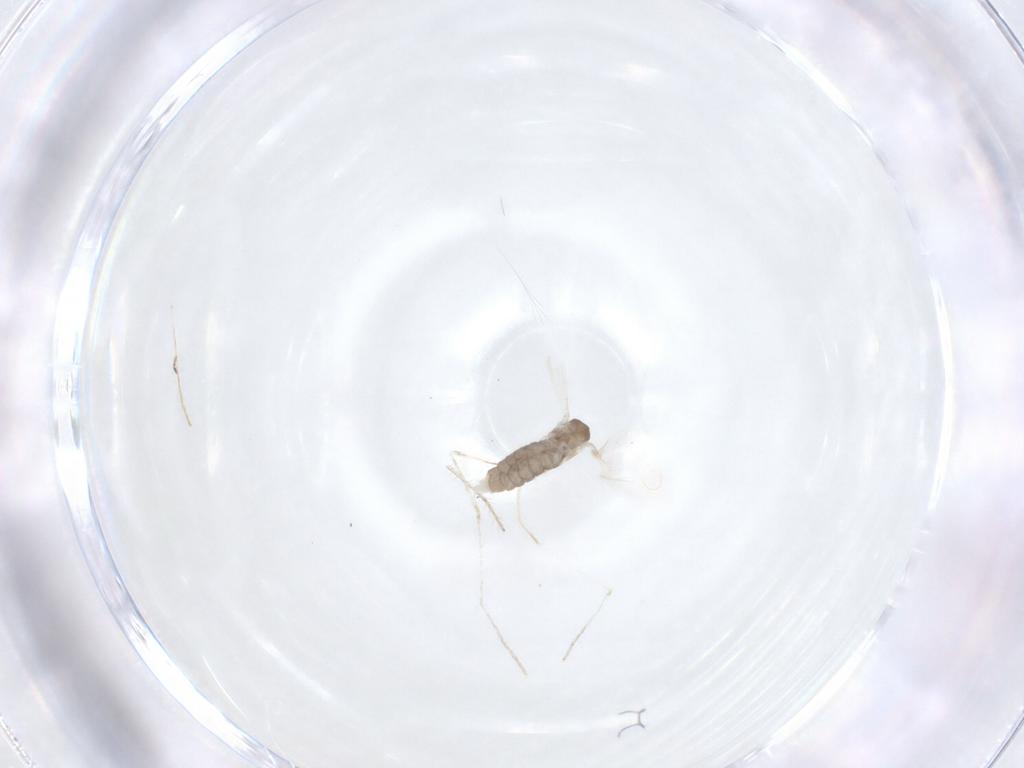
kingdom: Animalia
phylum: Arthropoda
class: Insecta
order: Diptera
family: Cecidomyiidae
